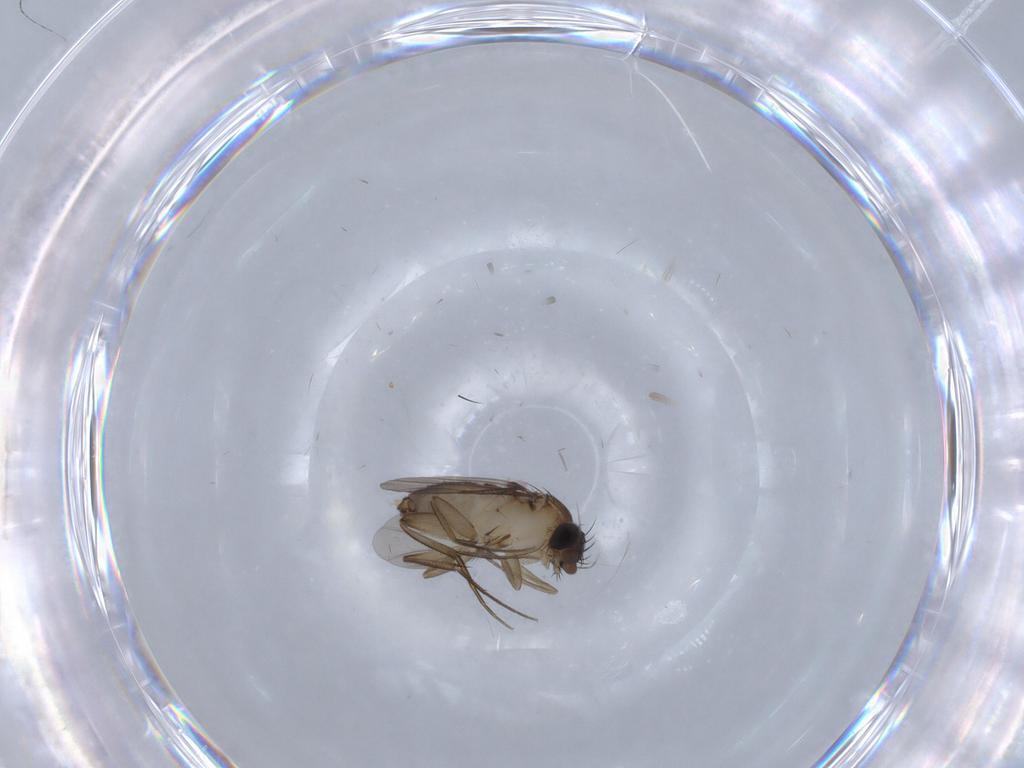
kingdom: Animalia
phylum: Arthropoda
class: Insecta
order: Diptera
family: Phoridae
